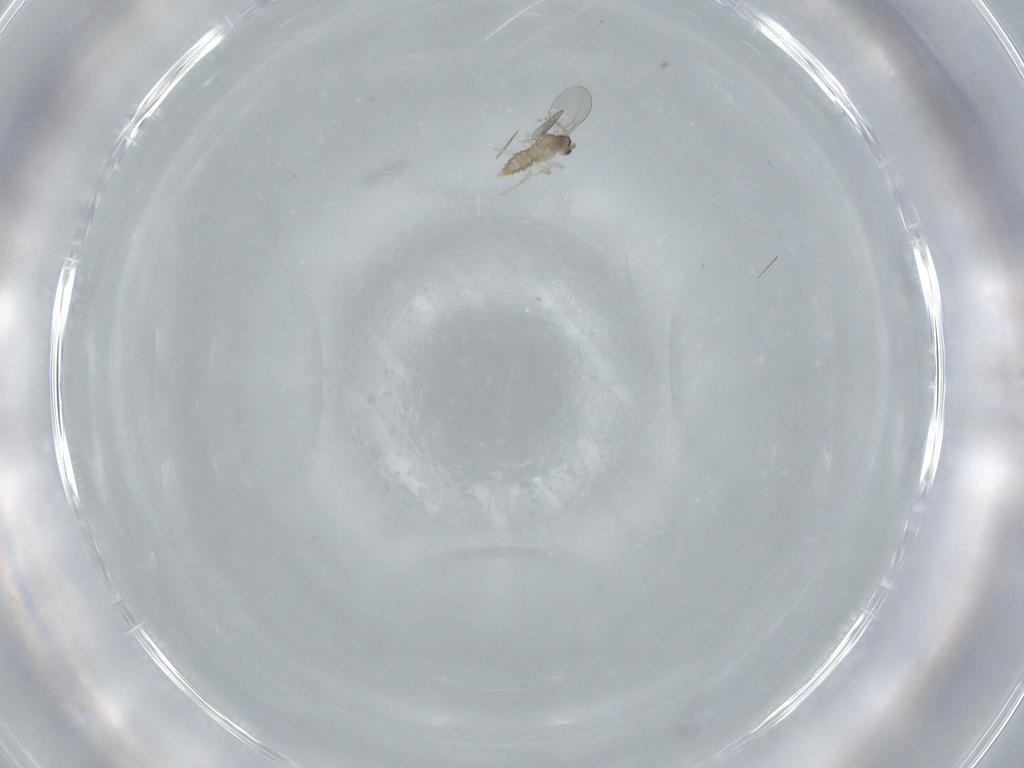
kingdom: Animalia
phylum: Arthropoda
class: Insecta
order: Diptera
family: Cecidomyiidae
